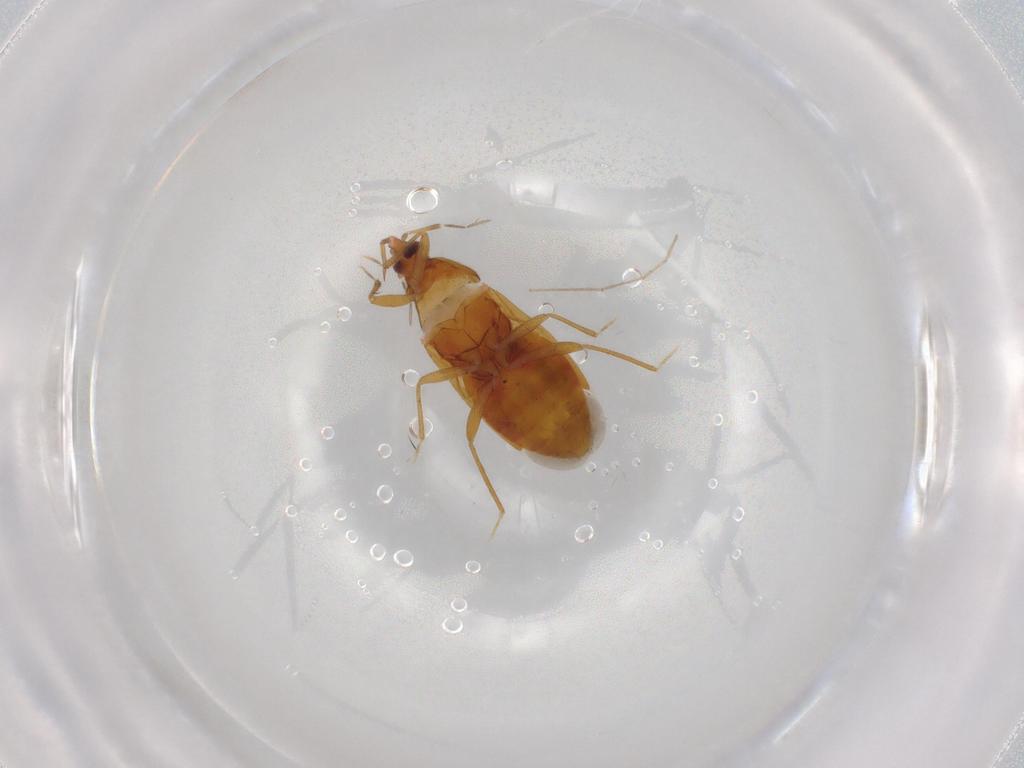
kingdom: Animalia
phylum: Arthropoda
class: Insecta
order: Hemiptera
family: Anthocoridae
